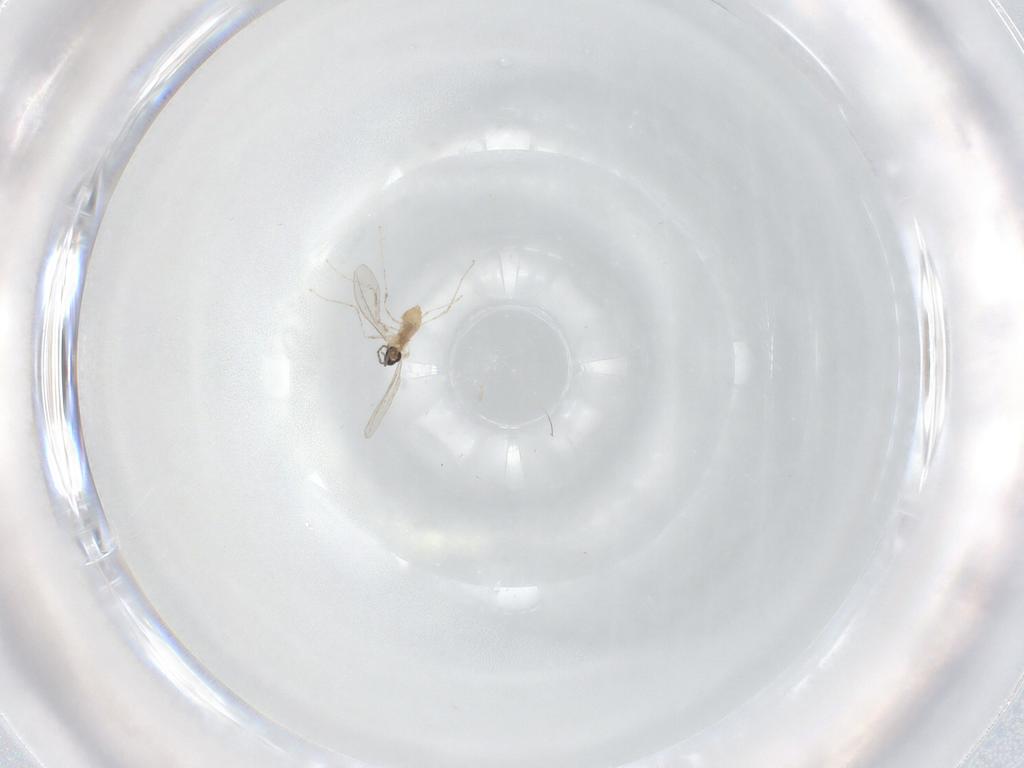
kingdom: Animalia
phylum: Arthropoda
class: Insecta
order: Diptera
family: Cecidomyiidae
